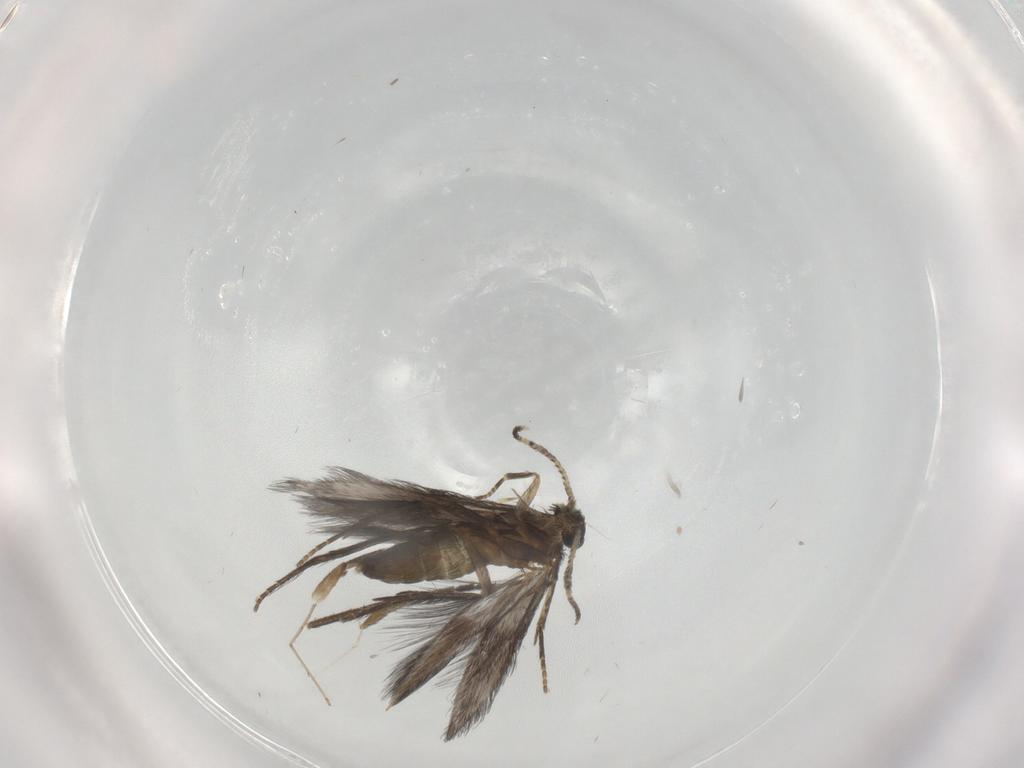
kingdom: Animalia
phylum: Arthropoda
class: Insecta
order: Trichoptera
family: Hydroptilidae
